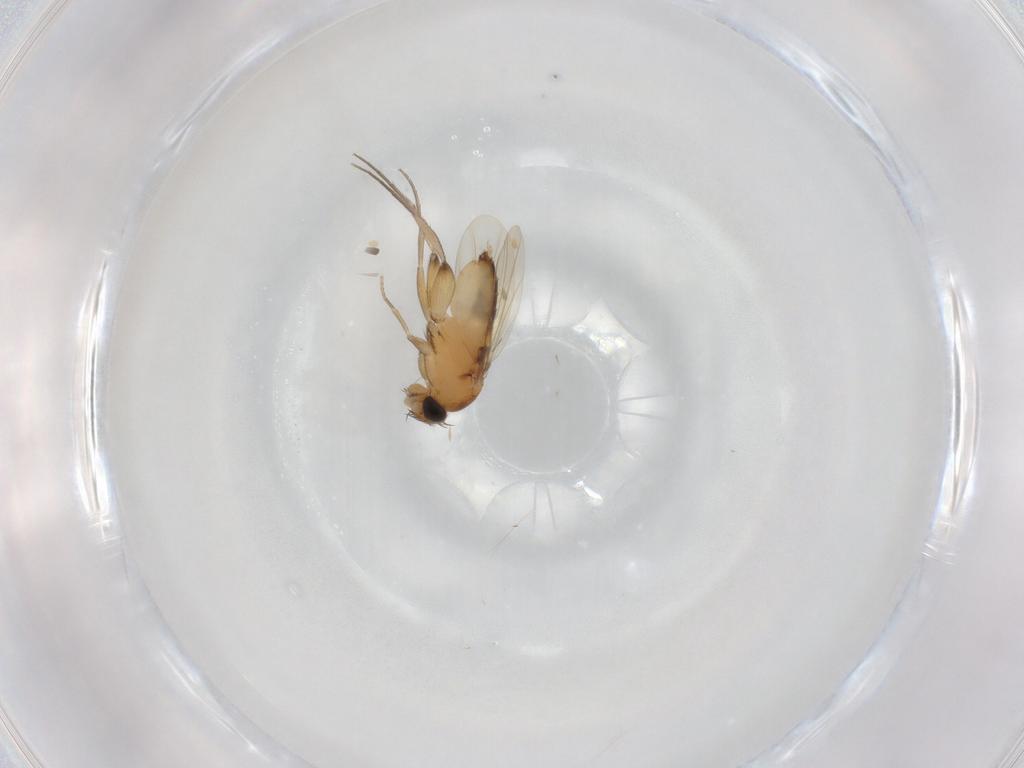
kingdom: Animalia
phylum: Arthropoda
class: Insecta
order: Diptera
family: Phoridae
